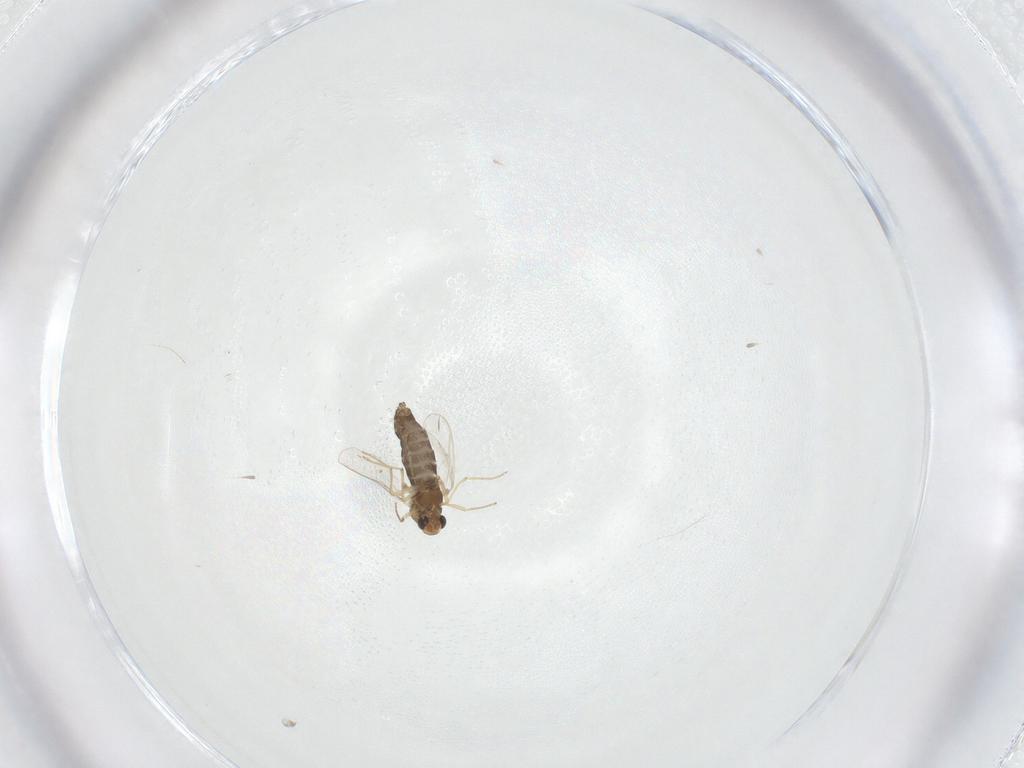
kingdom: Animalia
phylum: Arthropoda
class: Insecta
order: Diptera
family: Chironomidae
